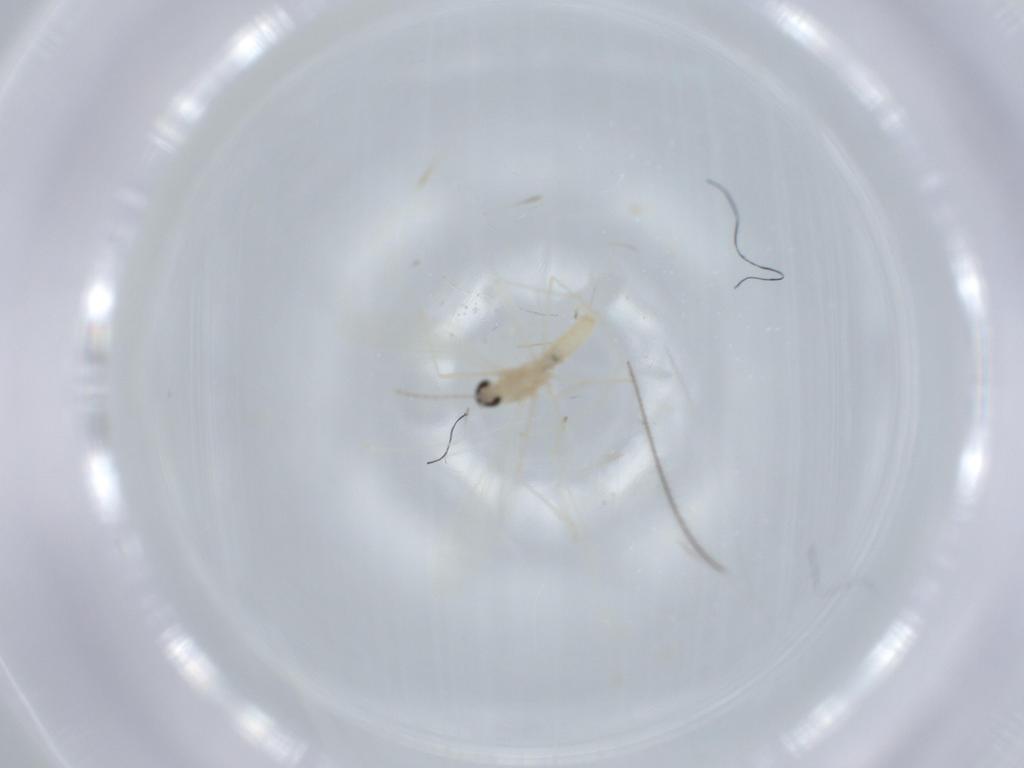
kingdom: Animalia
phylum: Arthropoda
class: Insecta
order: Diptera
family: Cecidomyiidae
